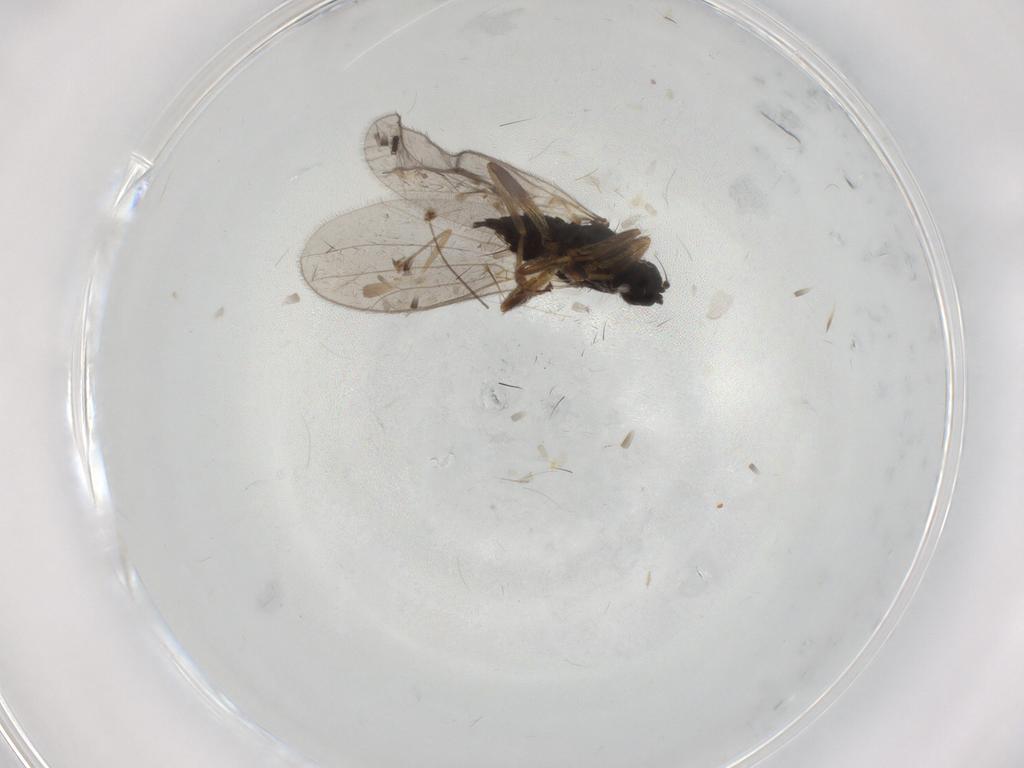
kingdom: Animalia
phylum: Arthropoda
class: Insecta
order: Diptera
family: Hybotidae
